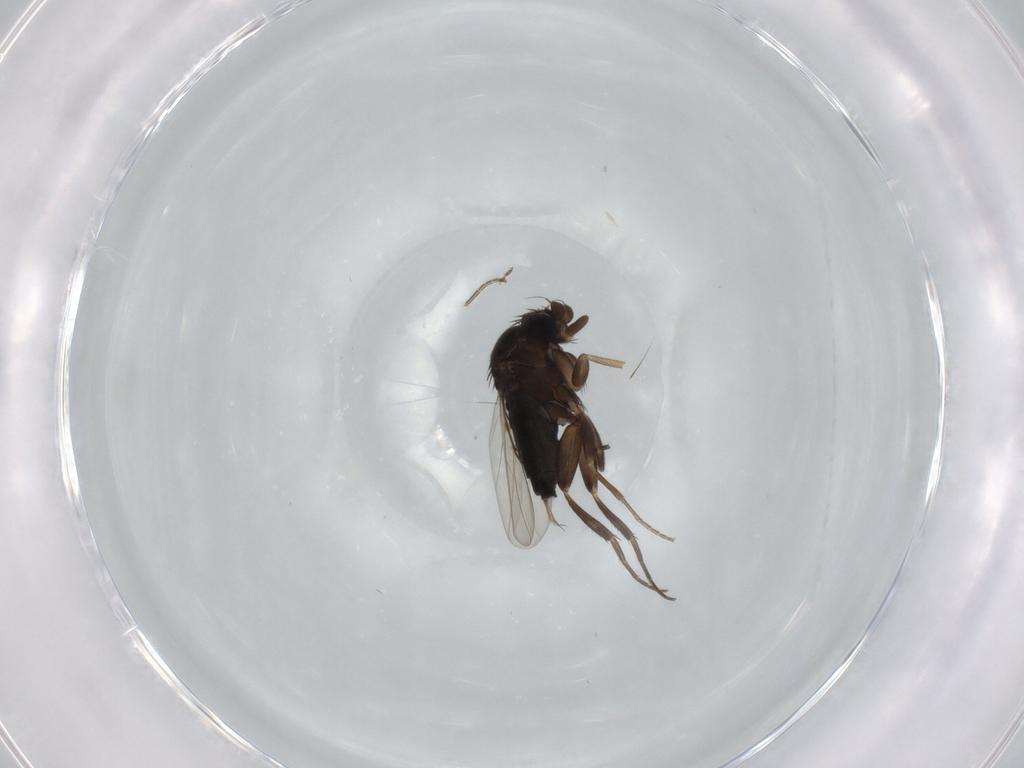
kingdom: Animalia
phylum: Arthropoda
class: Insecta
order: Diptera
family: Phoridae
